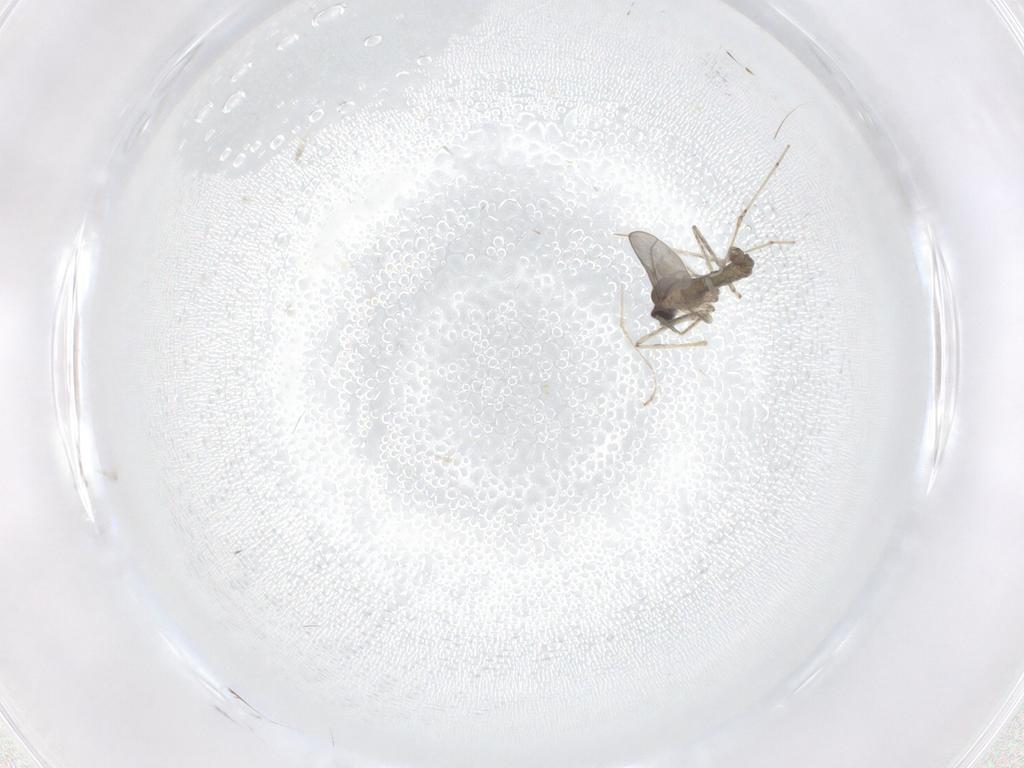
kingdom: Animalia
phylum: Arthropoda
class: Insecta
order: Diptera
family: Cecidomyiidae
